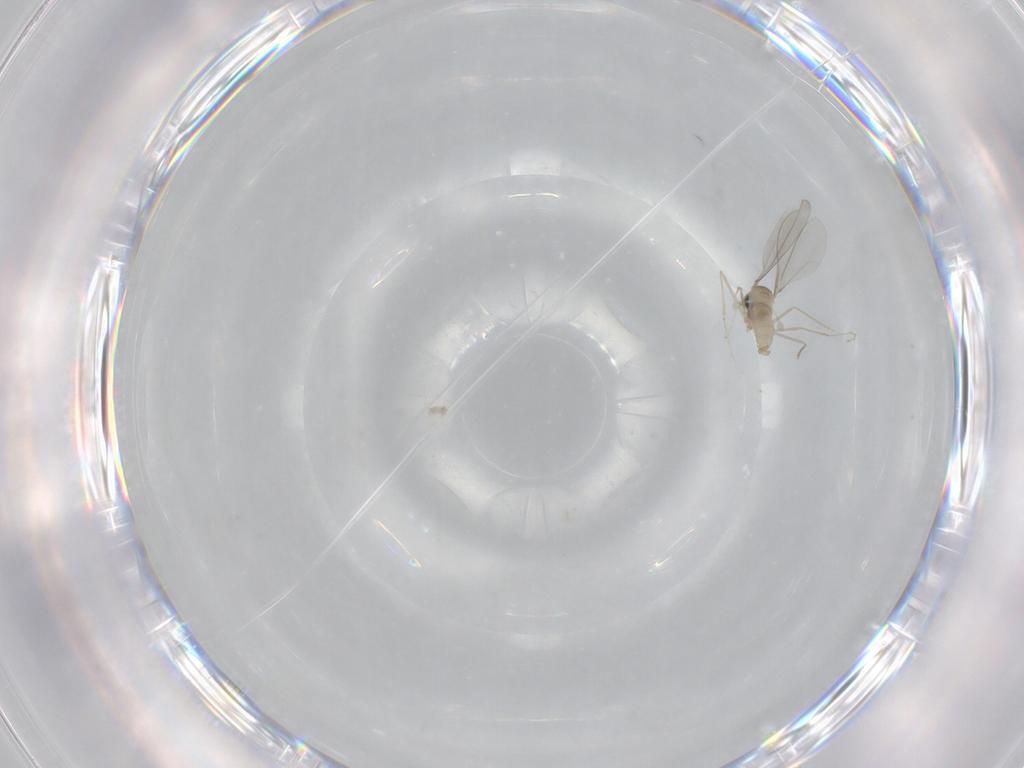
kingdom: Animalia
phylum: Arthropoda
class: Insecta
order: Diptera
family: Cecidomyiidae
